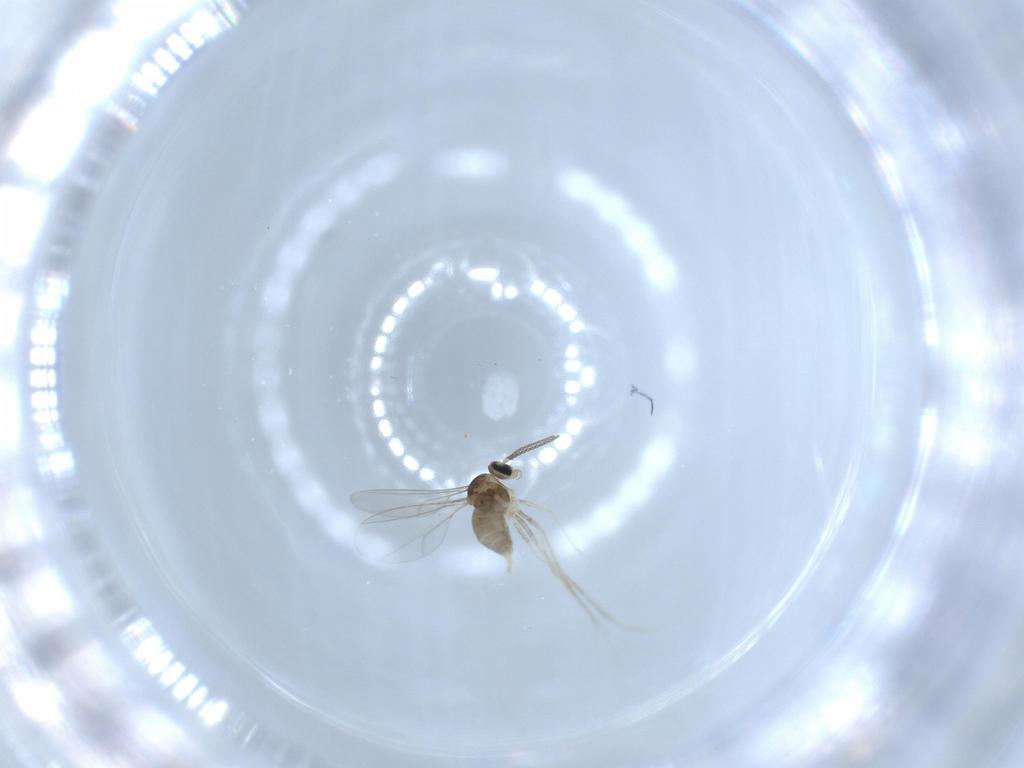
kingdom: Animalia
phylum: Arthropoda
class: Insecta
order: Diptera
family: Cecidomyiidae
